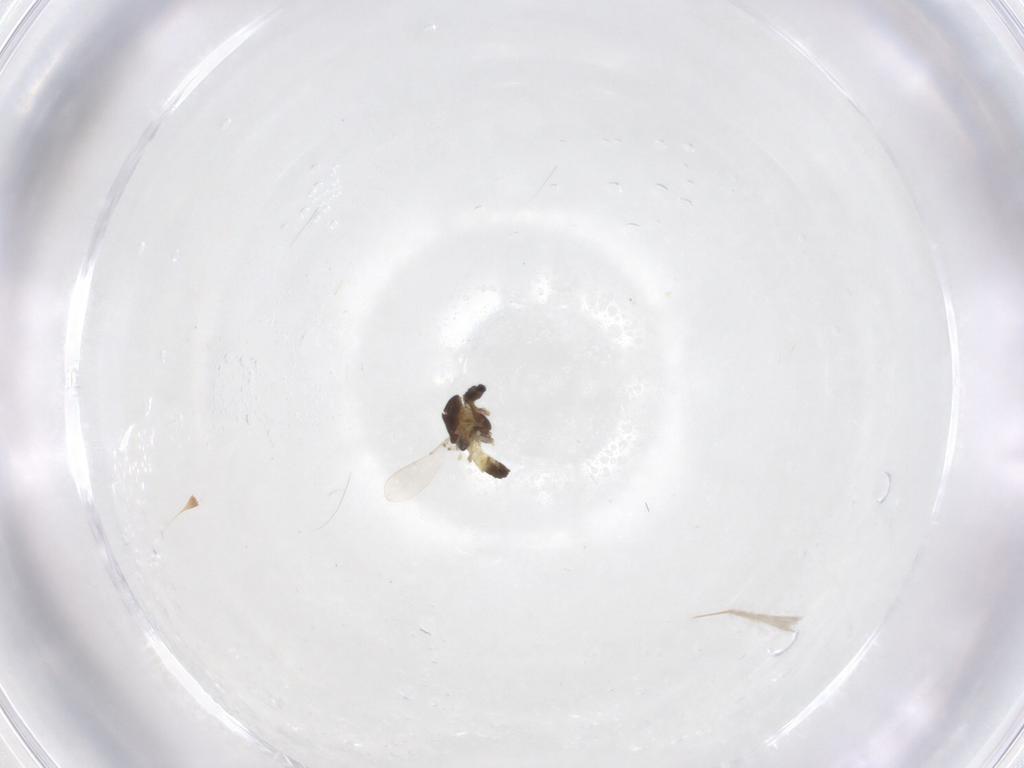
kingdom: Animalia
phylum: Arthropoda
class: Insecta
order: Diptera
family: Chironomidae
